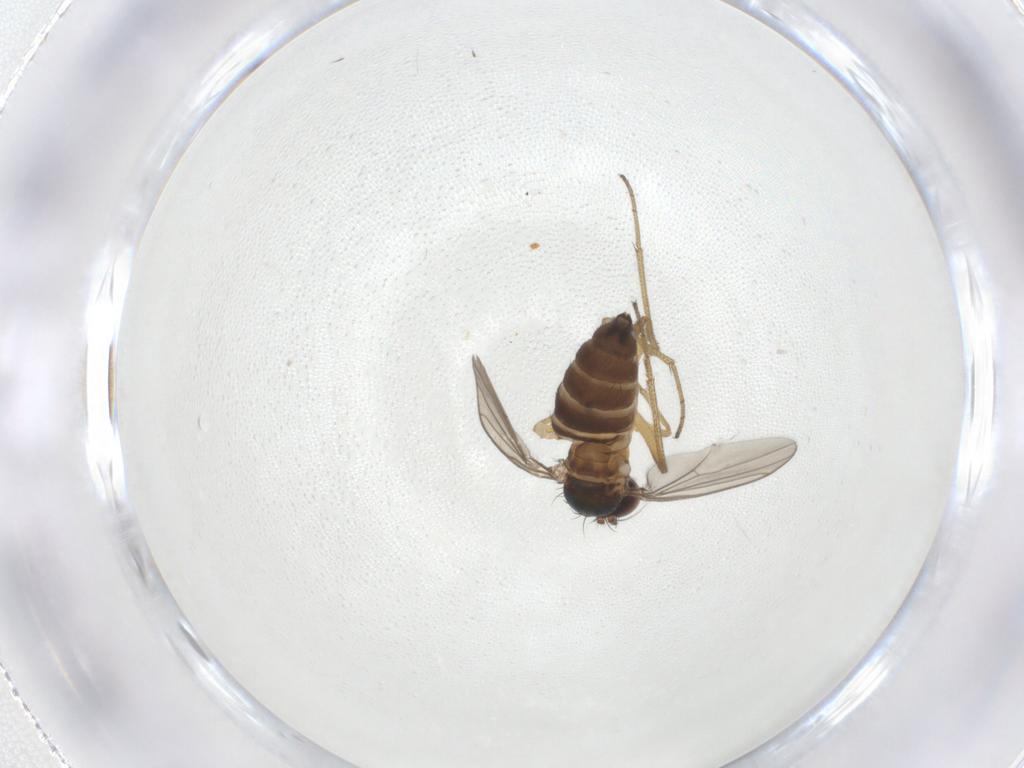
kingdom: Animalia
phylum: Arthropoda
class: Insecta
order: Diptera
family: Dolichopodidae
